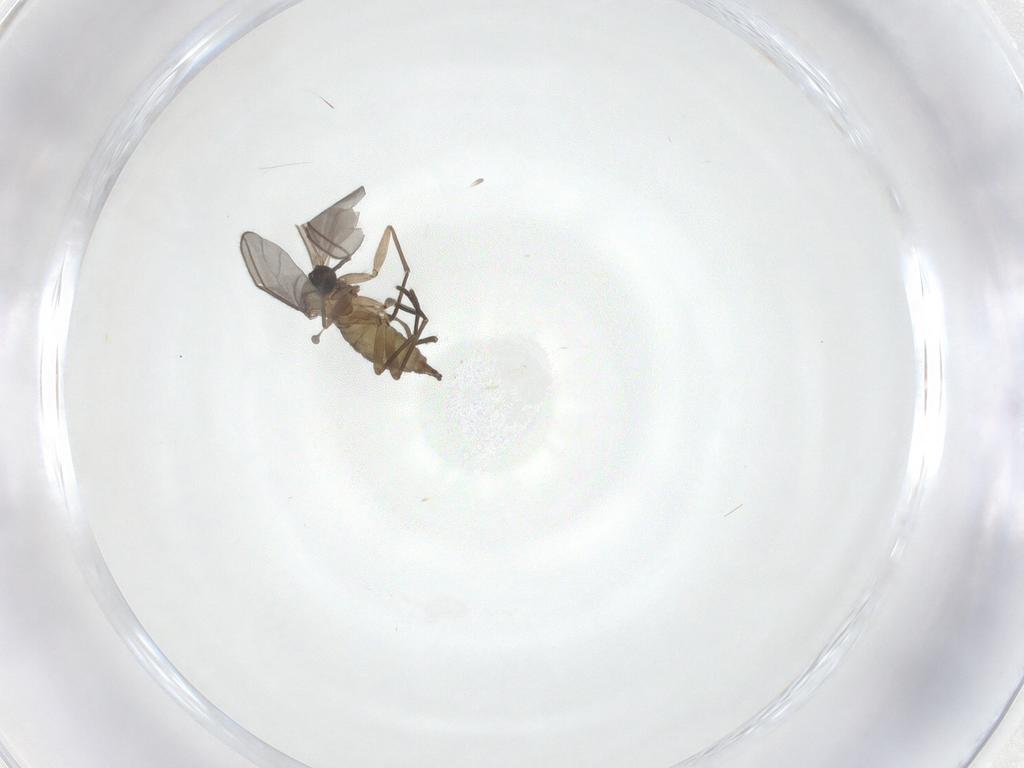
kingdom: Animalia
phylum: Arthropoda
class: Insecta
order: Diptera
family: Sciaridae
